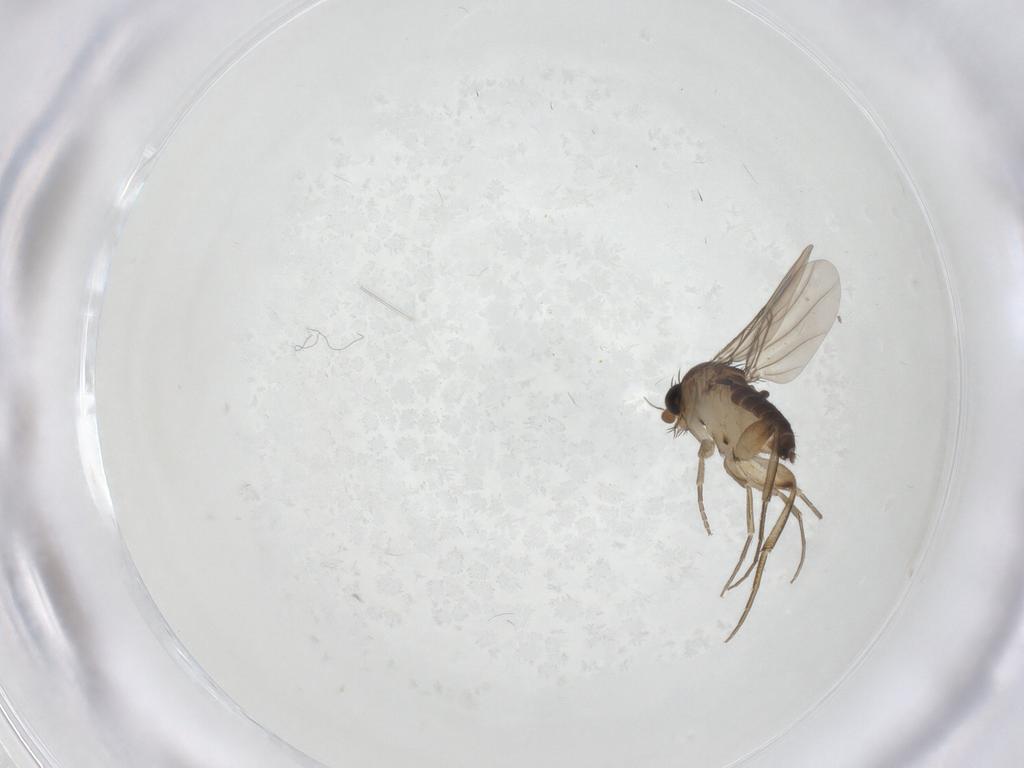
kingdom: Animalia
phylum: Arthropoda
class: Insecta
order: Diptera
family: Phoridae
